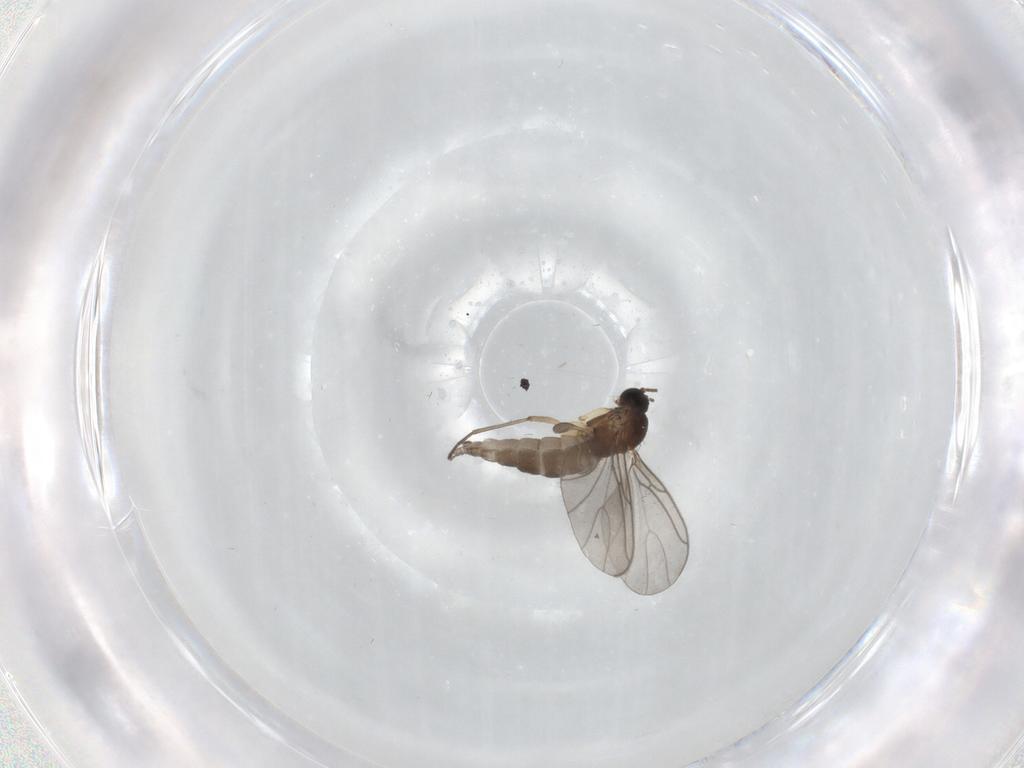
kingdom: Animalia
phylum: Arthropoda
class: Insecta
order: Diptera
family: Sciaridae
